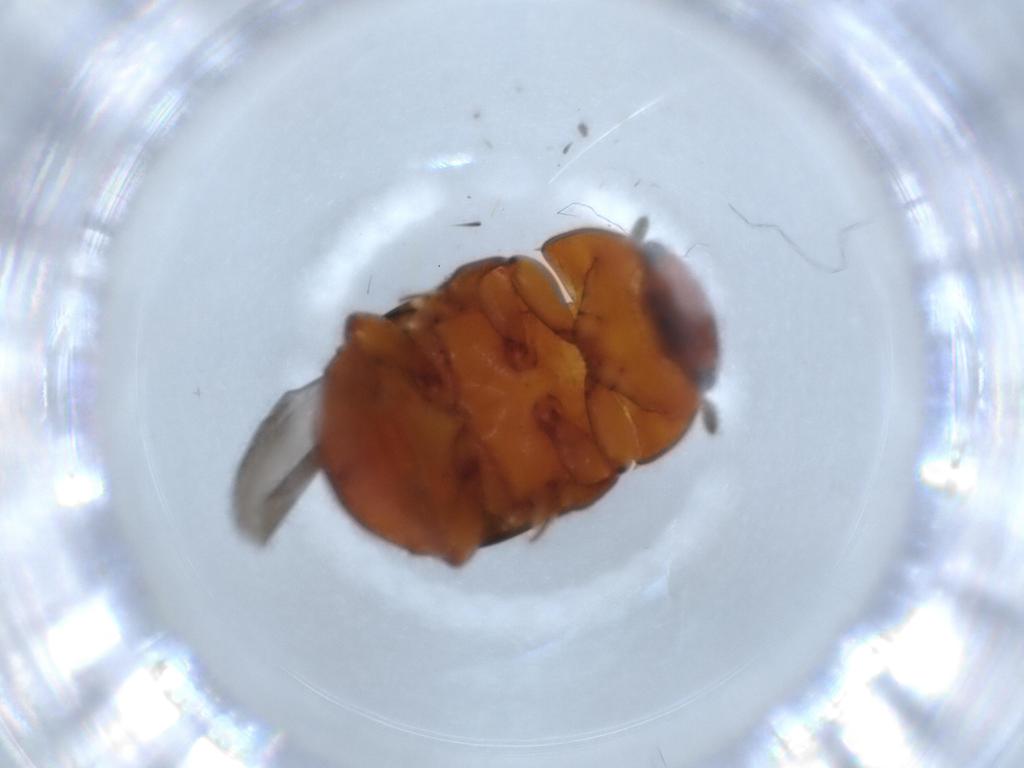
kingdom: Animalia
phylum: Arthropoda
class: Insecta
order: Coleoptera
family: Nitidulidae
